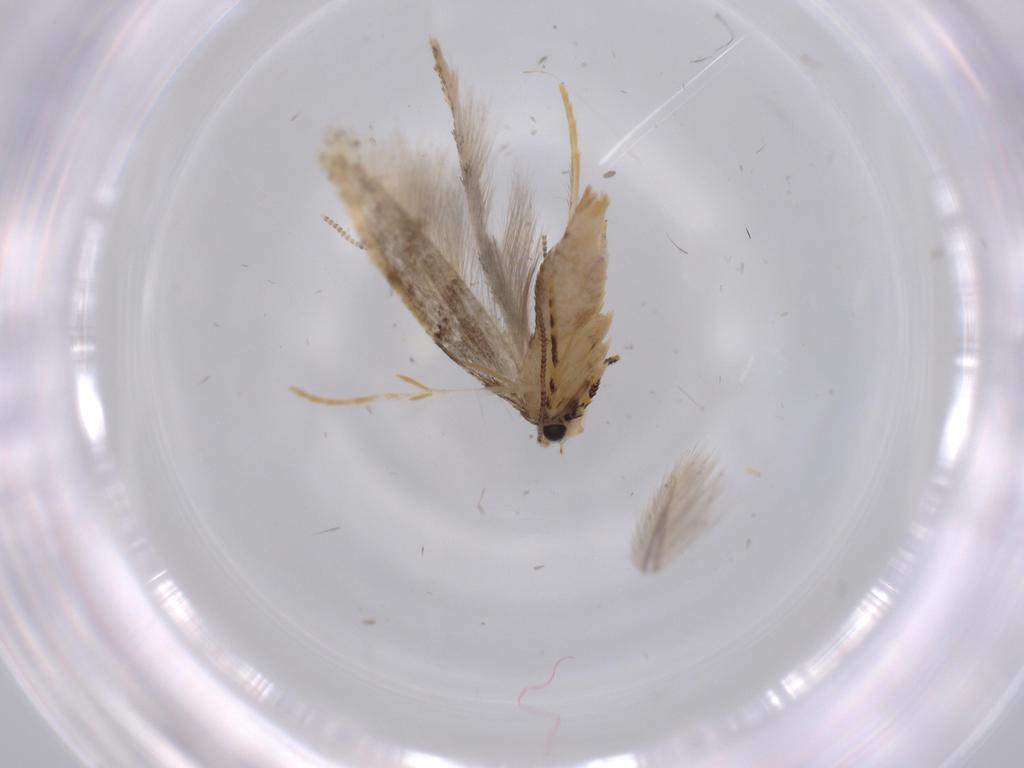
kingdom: Animalia
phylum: Arthropoda
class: Insecta
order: Lepidoptera
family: Tineidae
